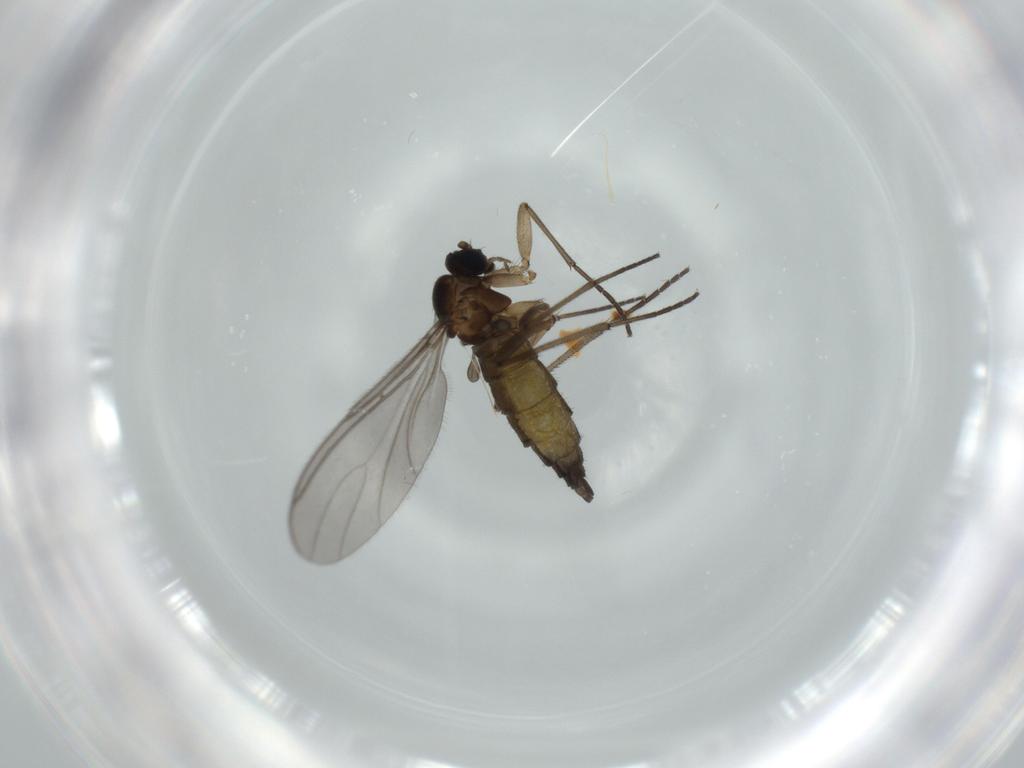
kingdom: Animalia
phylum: Arthropoda
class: Insecta
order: Diptera
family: Sciaridae
